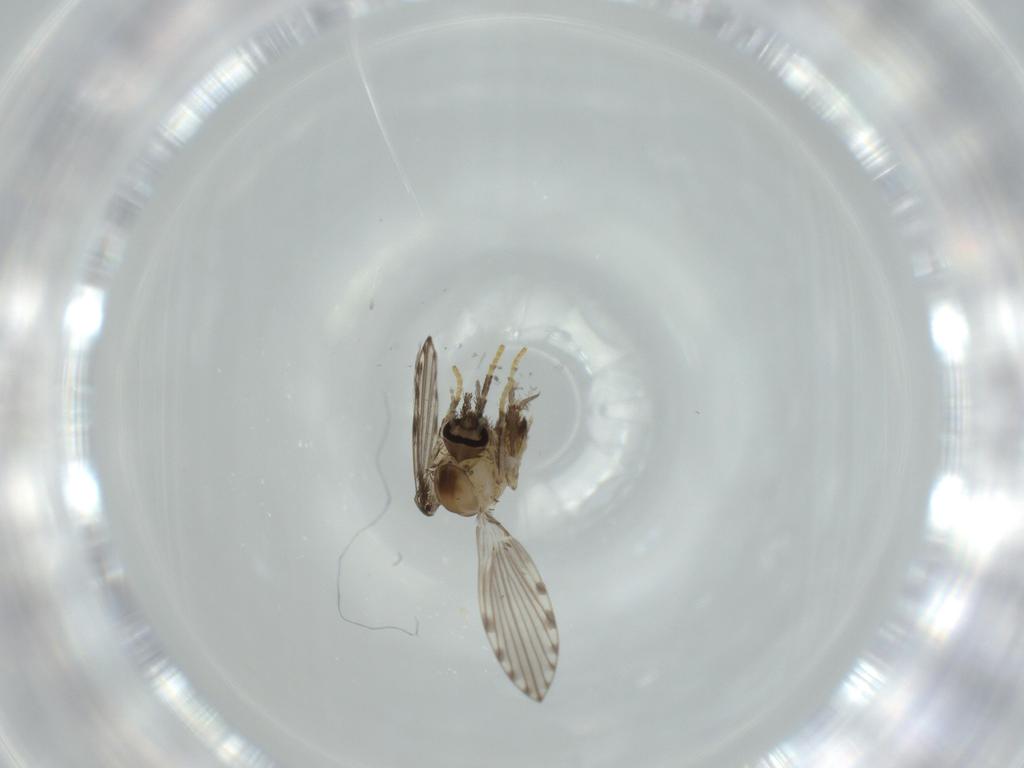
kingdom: Animalia
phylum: Arthropoda
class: Insecta
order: Diptera
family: Psychodidae
